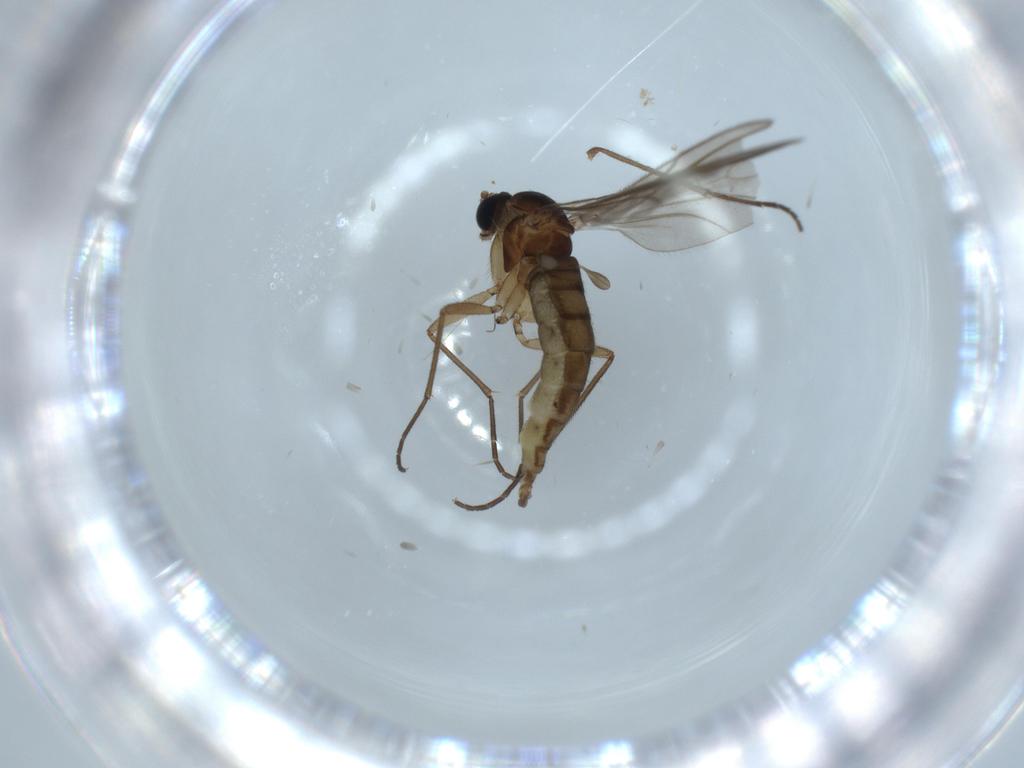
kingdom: Animalia
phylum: Arthropoda
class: Insecta
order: Diptera
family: Sciaridae
